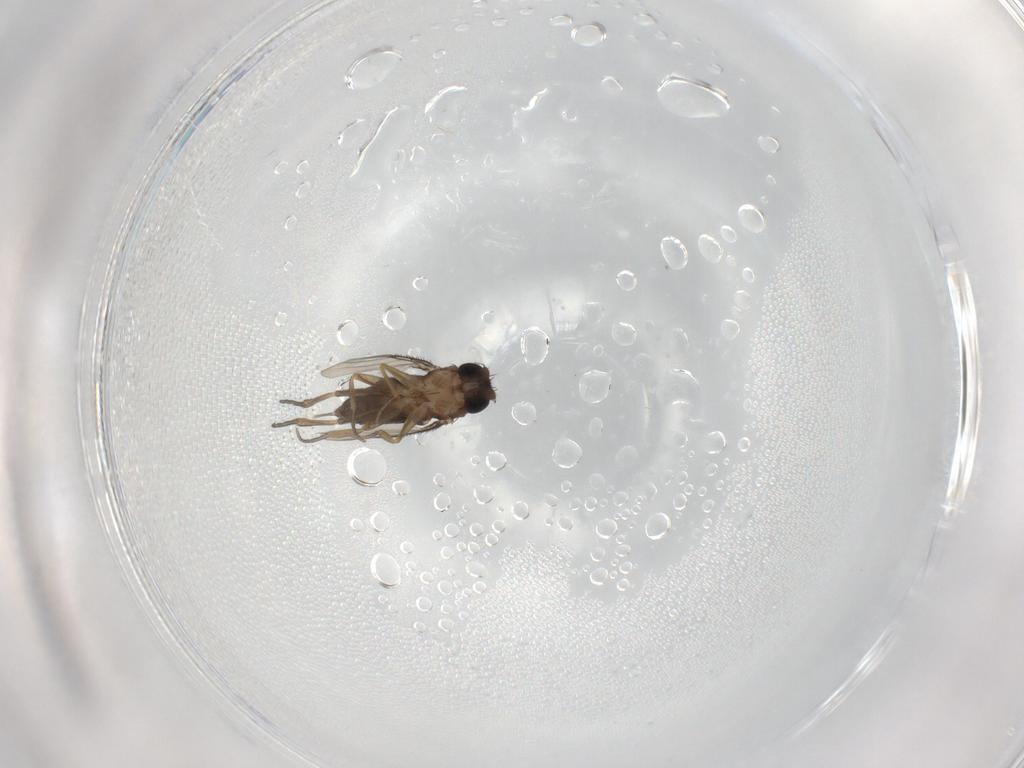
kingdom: Animalia
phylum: Arthropoda
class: Insecta
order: Diptera
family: Phoridae
